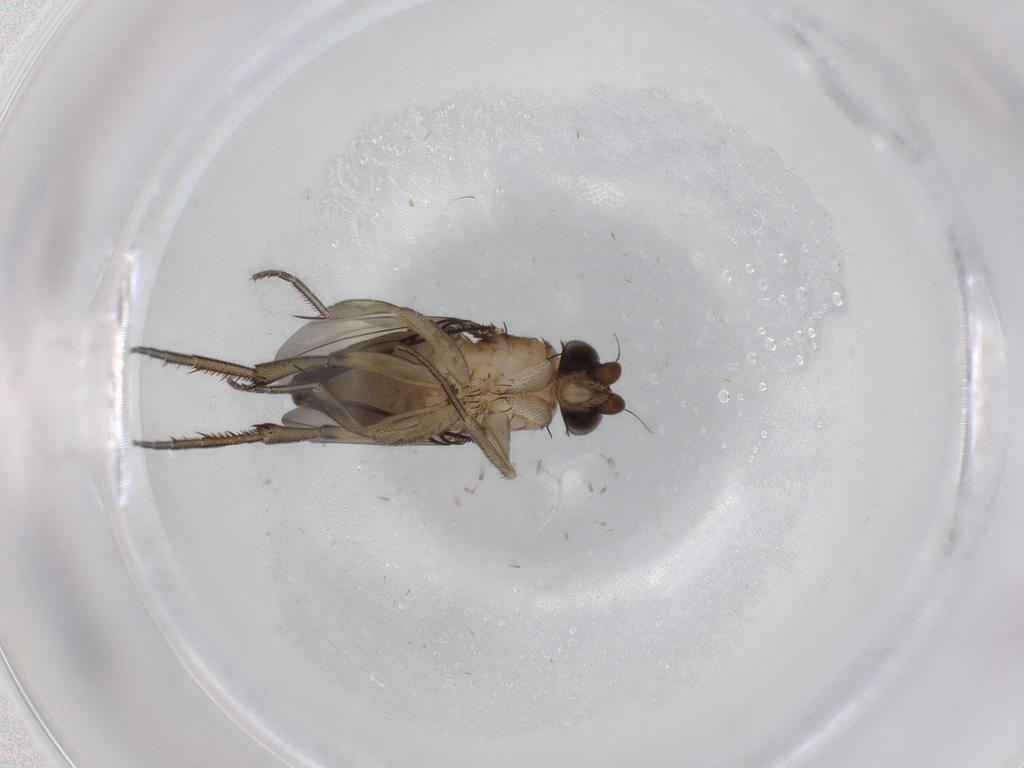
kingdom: Animalia
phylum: Arthropoda
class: Insecta
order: Diptera
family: Phoridae
